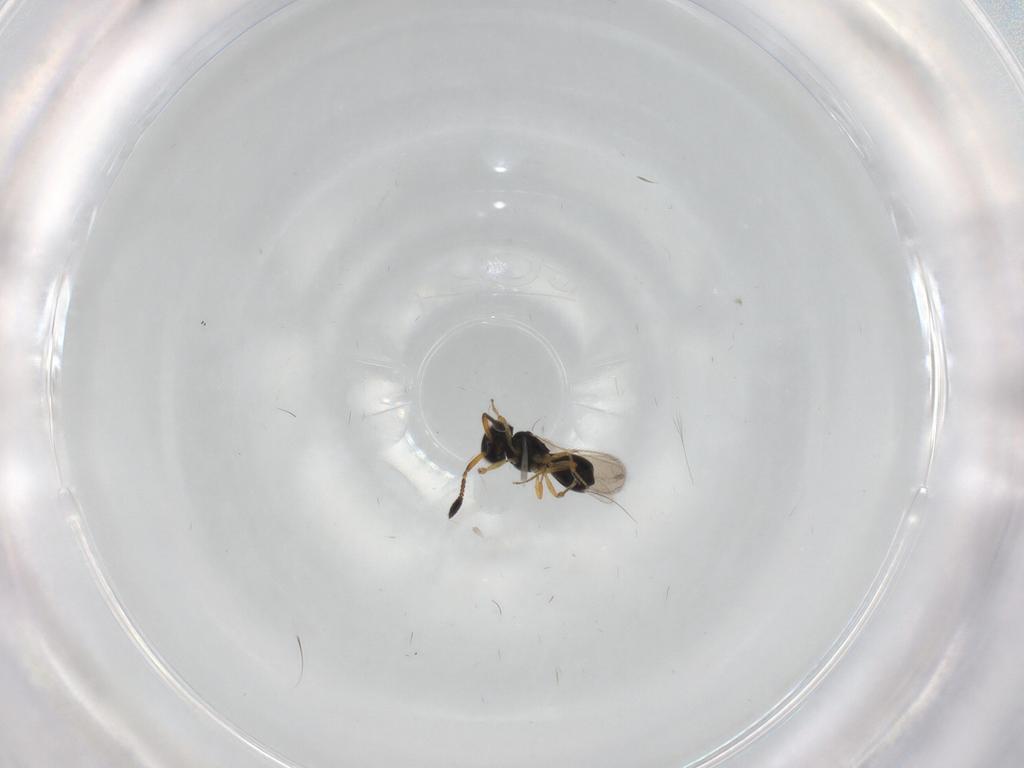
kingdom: Animalia
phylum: Arthropoda
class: Insecta
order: Hymenoptera
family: Scelionidae
